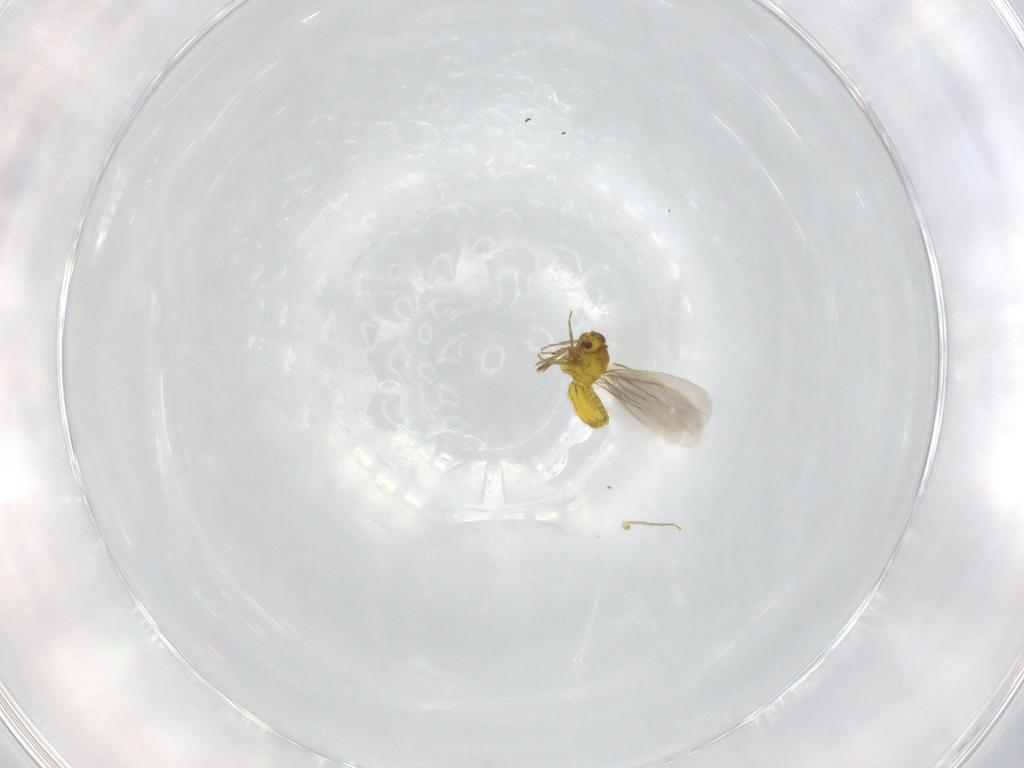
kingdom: Animalia
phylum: Arthropoda
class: Insecta
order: Hemiptera
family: Aleyrodidae
